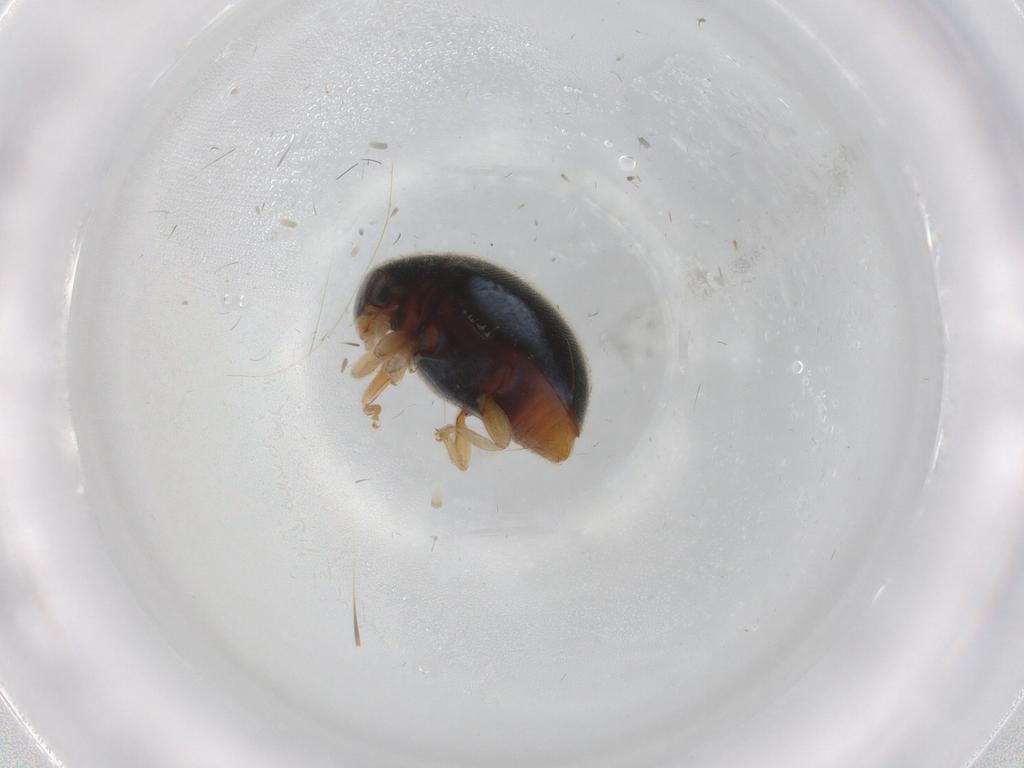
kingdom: Animalia
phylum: Arthropoda
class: Insecta
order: Coleoptera
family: Coccinellidae
